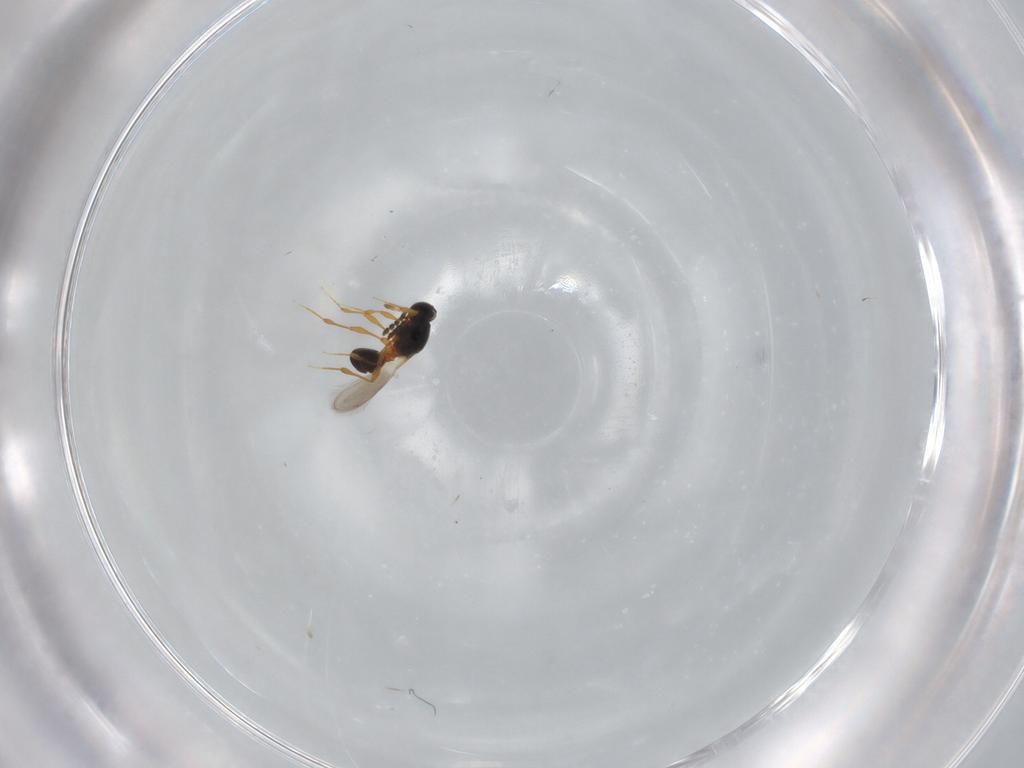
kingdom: Animalia
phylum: Arthropoda
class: Insecta
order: Hymenoptera
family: Platygastridae
